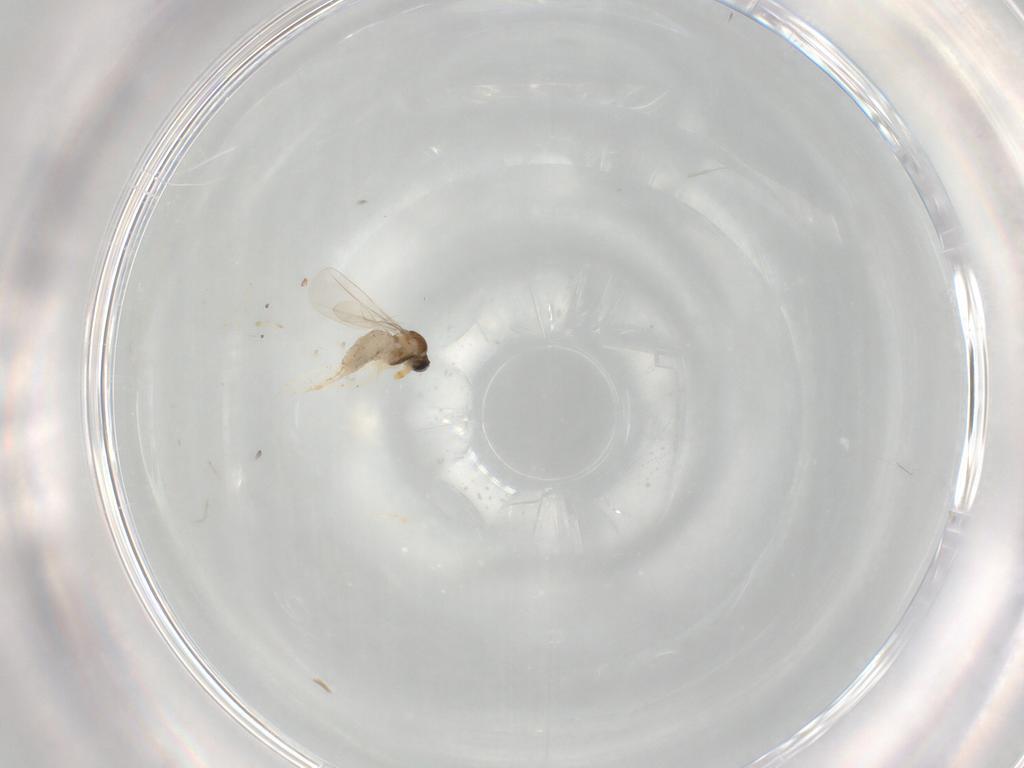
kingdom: Animalia
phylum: Arthropoda
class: Insecta
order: Diptera
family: Cecidomyiidae
